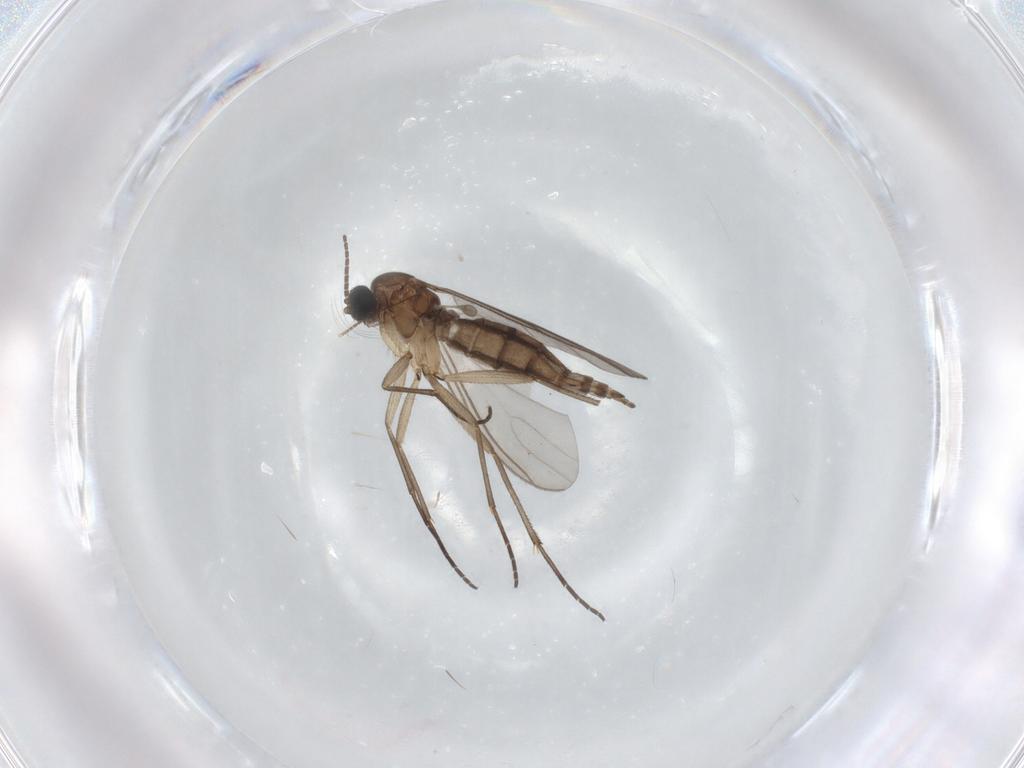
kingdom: Animalia
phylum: Arthropoda
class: Insecta
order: Diptera
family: Sciaridae
